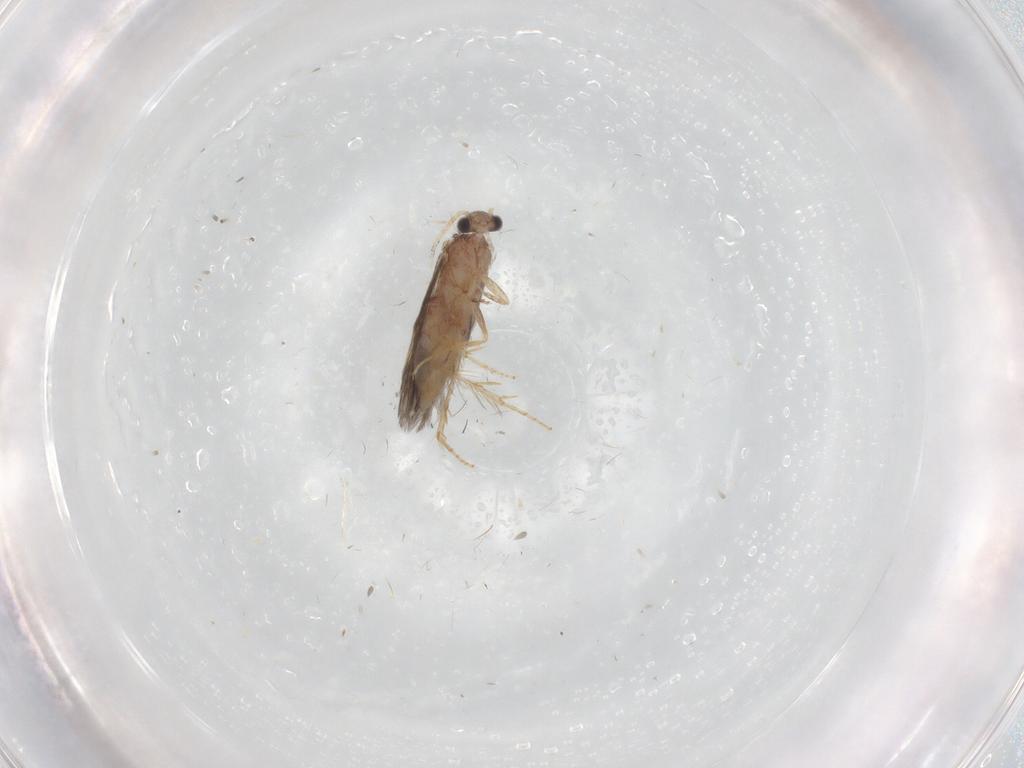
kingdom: Animalia
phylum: Arthropoda
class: Insecta
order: Trichoptera
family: Hydroptilidae
